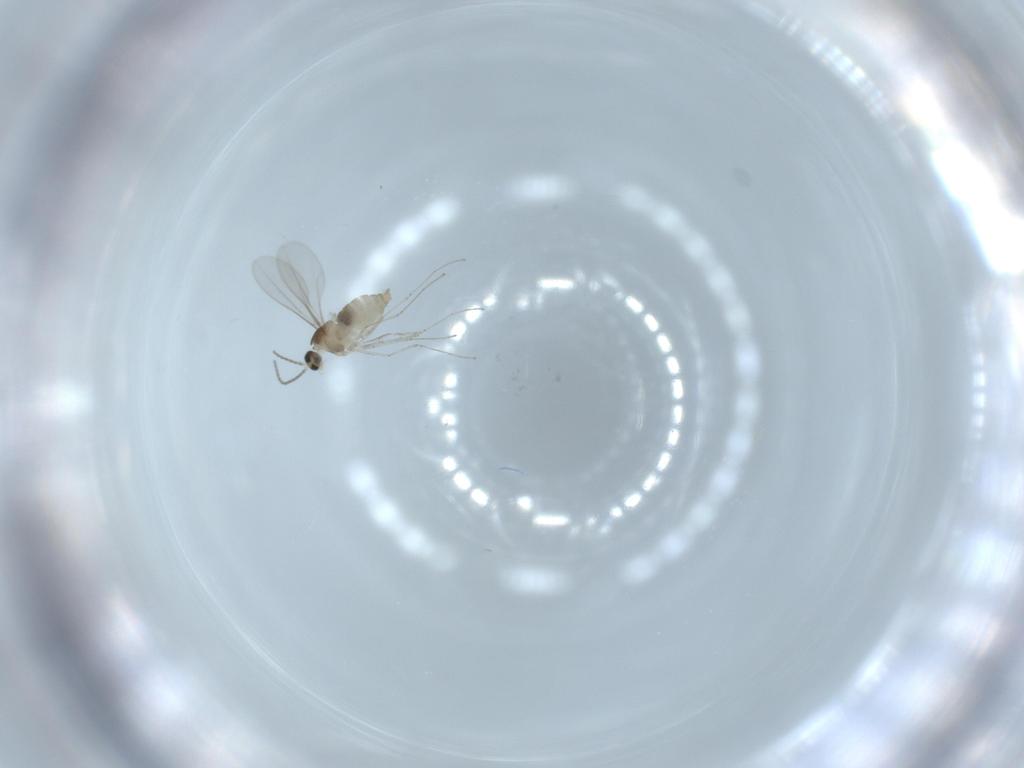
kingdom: Animalia
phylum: Arthropoda
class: Insecta
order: Diptera
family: Cecidomyiidae
